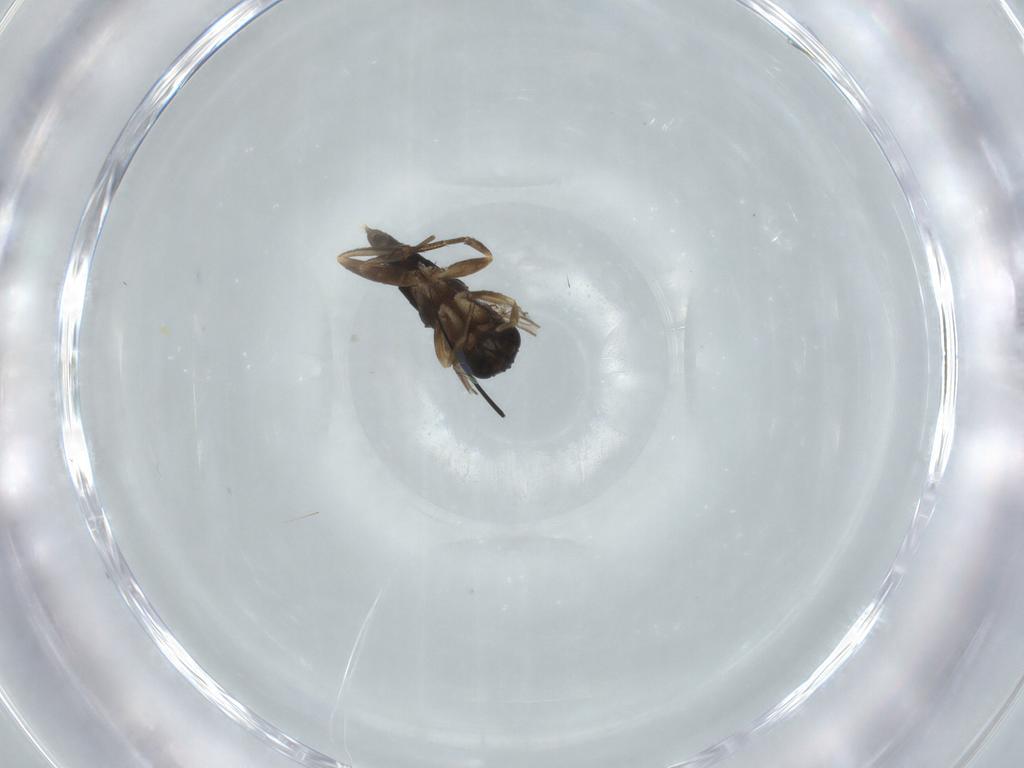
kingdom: Animalia
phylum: Arthropoda
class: Insecta
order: Diptera
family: Phoridae
